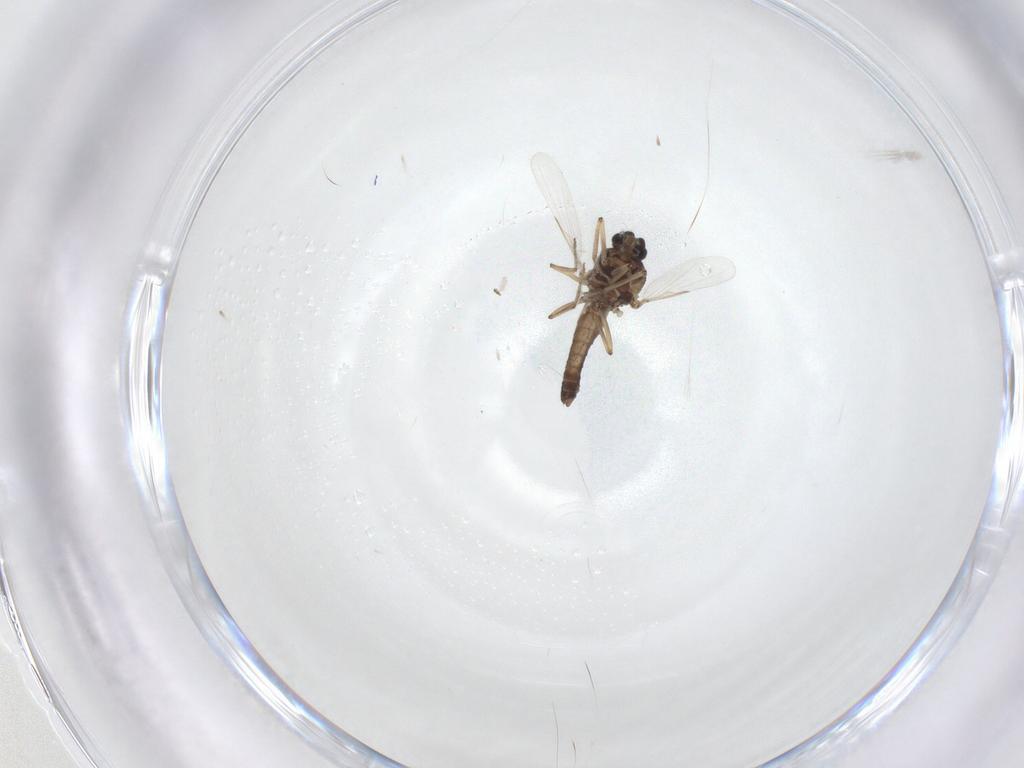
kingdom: Animalia
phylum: Arthropoda
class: Insecta
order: Diptera
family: Ceratopogonidae
